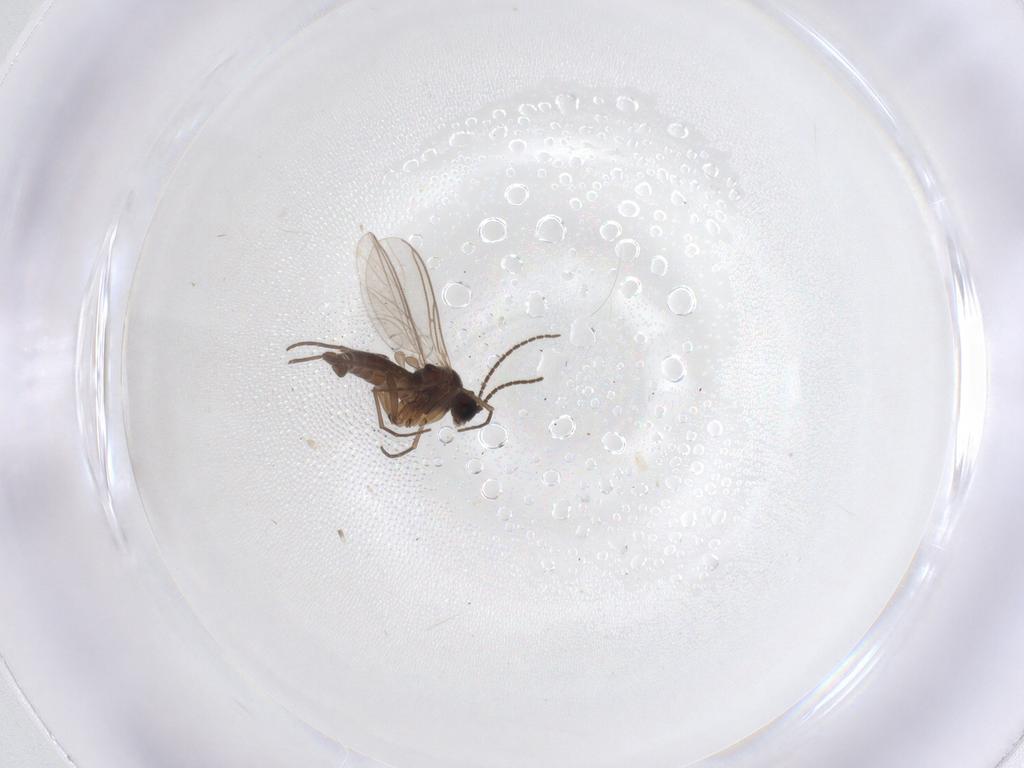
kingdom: Animalia
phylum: Arthropoda
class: Insecta
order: Diptera
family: Sciaridae
